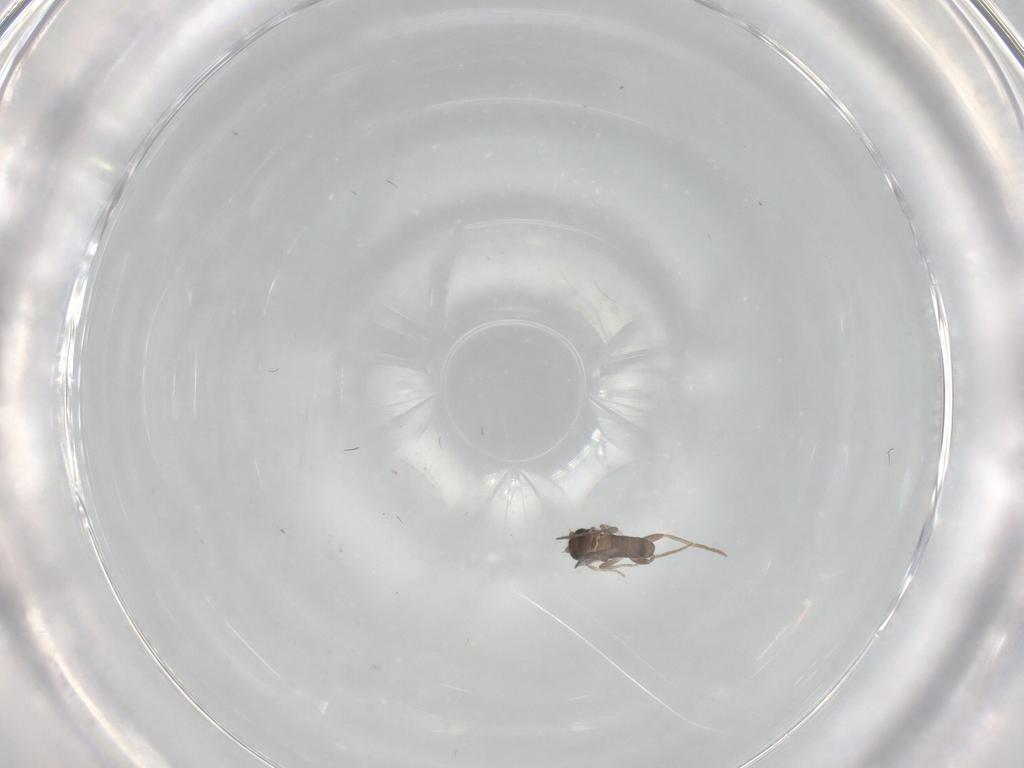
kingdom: Animalia
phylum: Arthropoda
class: Insecta
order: Diptera
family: Limoniidae
